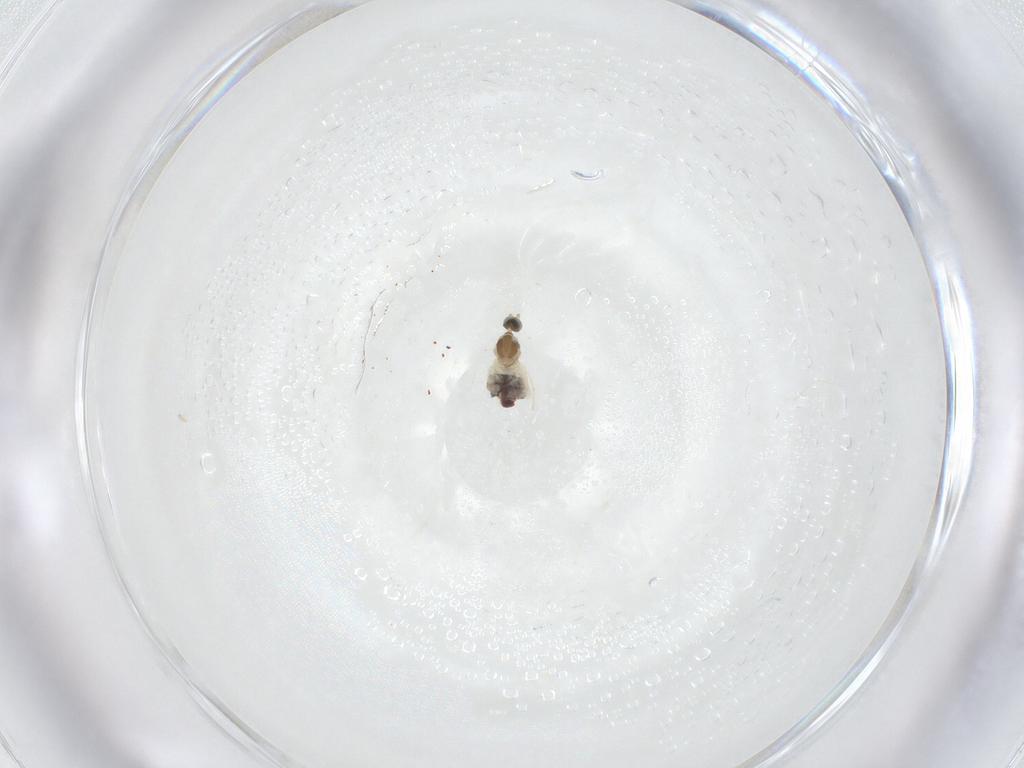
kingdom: Animalia
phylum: Arthropoda
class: Insecta
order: Diptera
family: Cecidomyiidae
